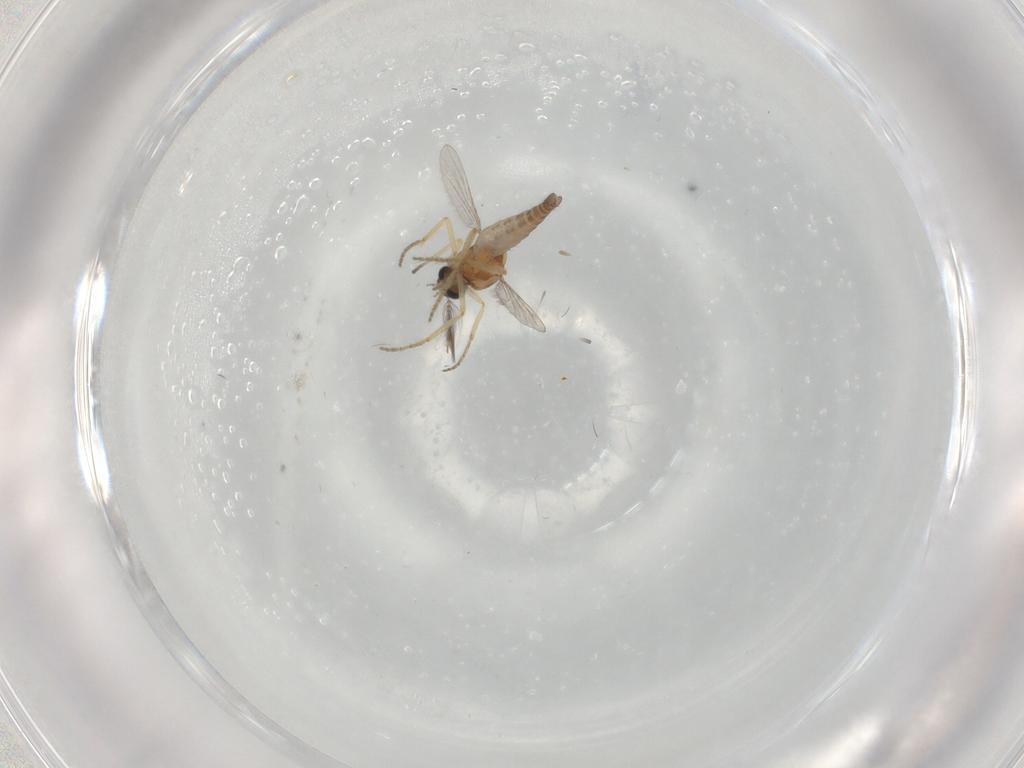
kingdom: Animalia
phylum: Arthropoda
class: Insecta
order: Diptera
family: Ceratopogonidae
